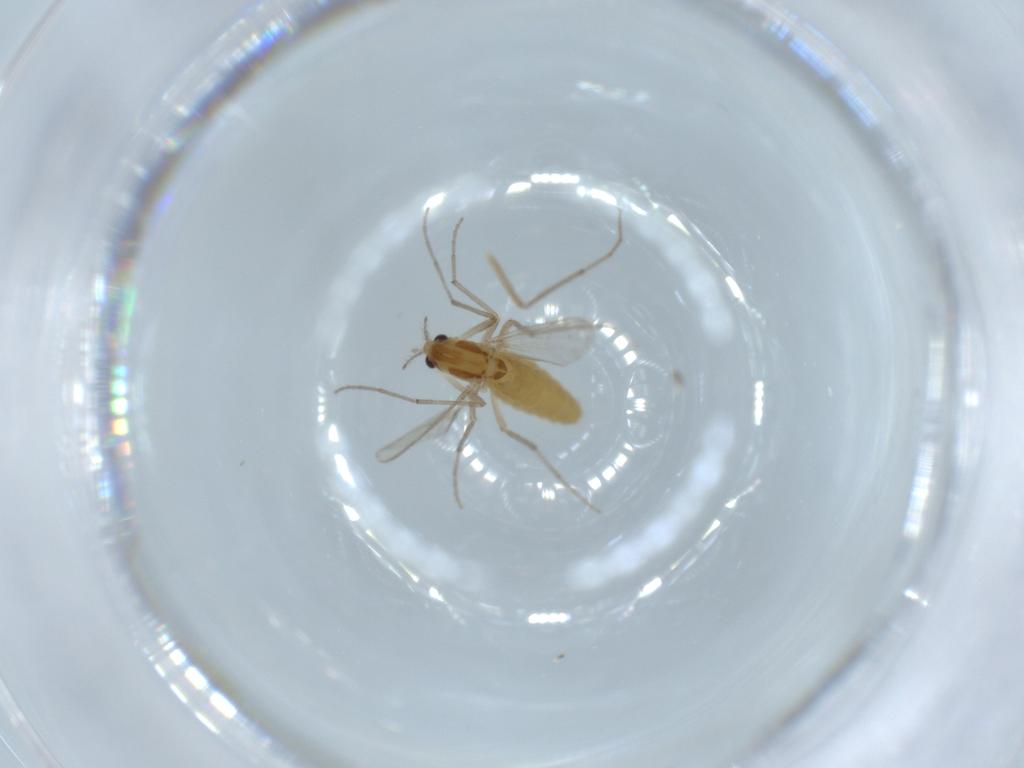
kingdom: Animalia
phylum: Arthropoda
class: Insecta
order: Diptera
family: Chironomidae
